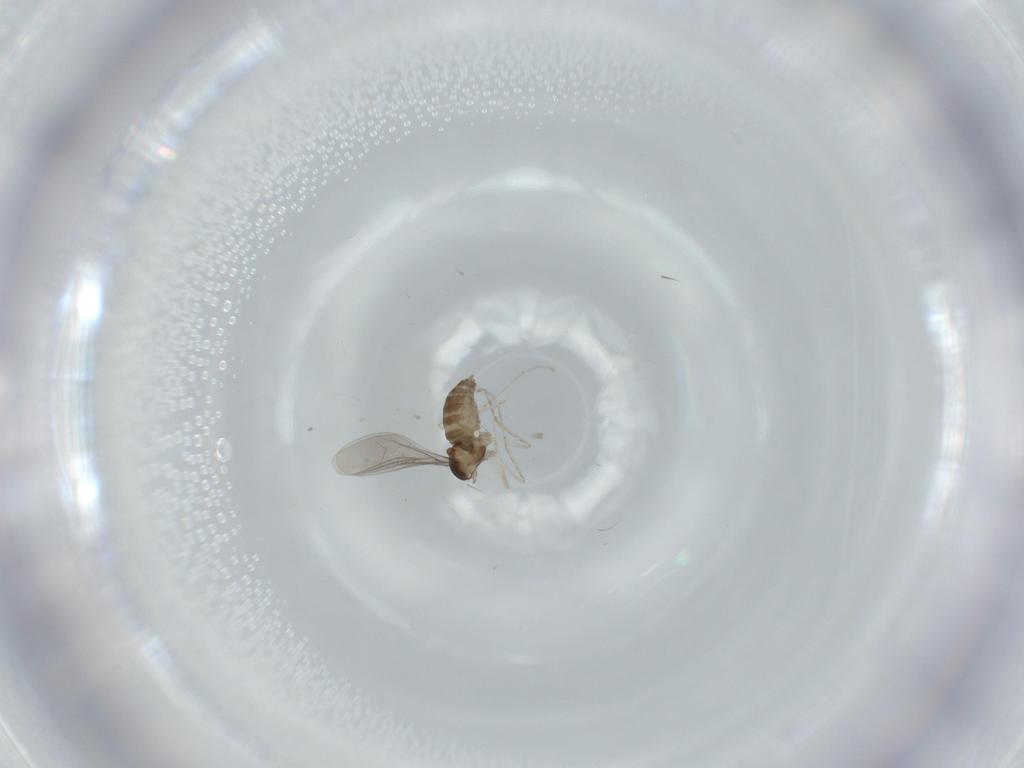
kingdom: Animalia
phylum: Arthropoda
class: Insecta
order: Diptera
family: Cecidomyiidae
